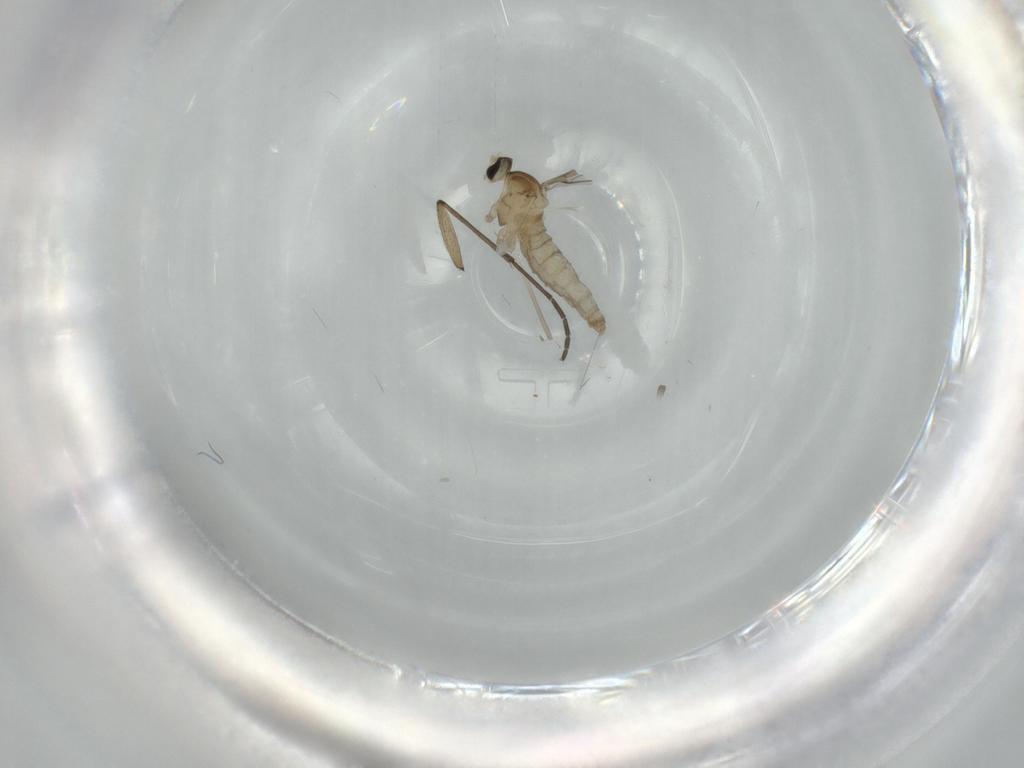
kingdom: Animalia
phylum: Arthropoda
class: Insecta
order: Diptera
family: Sciaridae
